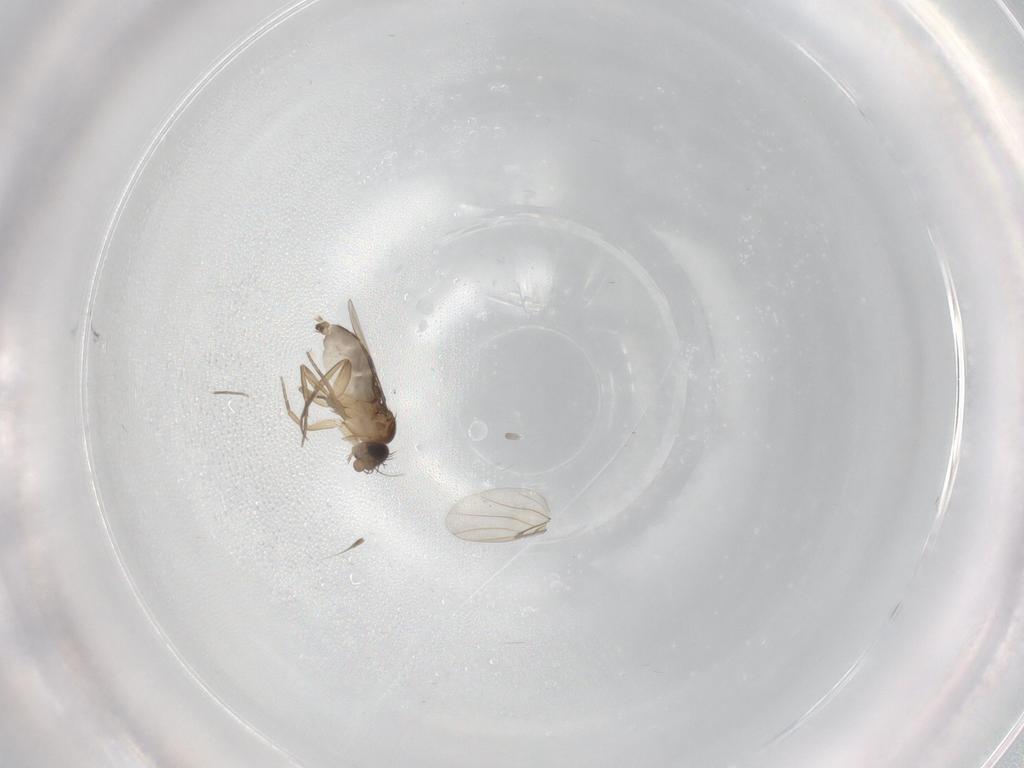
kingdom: Animalia
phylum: Arthropoda
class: Insecta
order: Diptera
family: Phoridae
